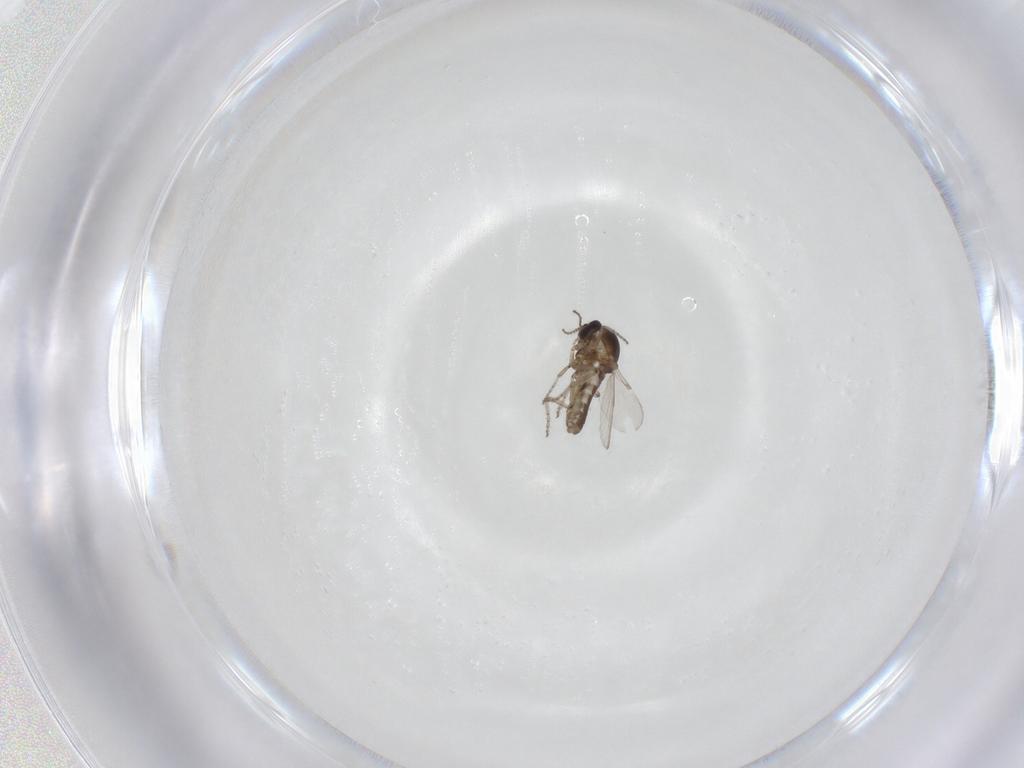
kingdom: Animalia
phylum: Arthropoda
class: Insecta
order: Diptera
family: Ceratopogonidae
